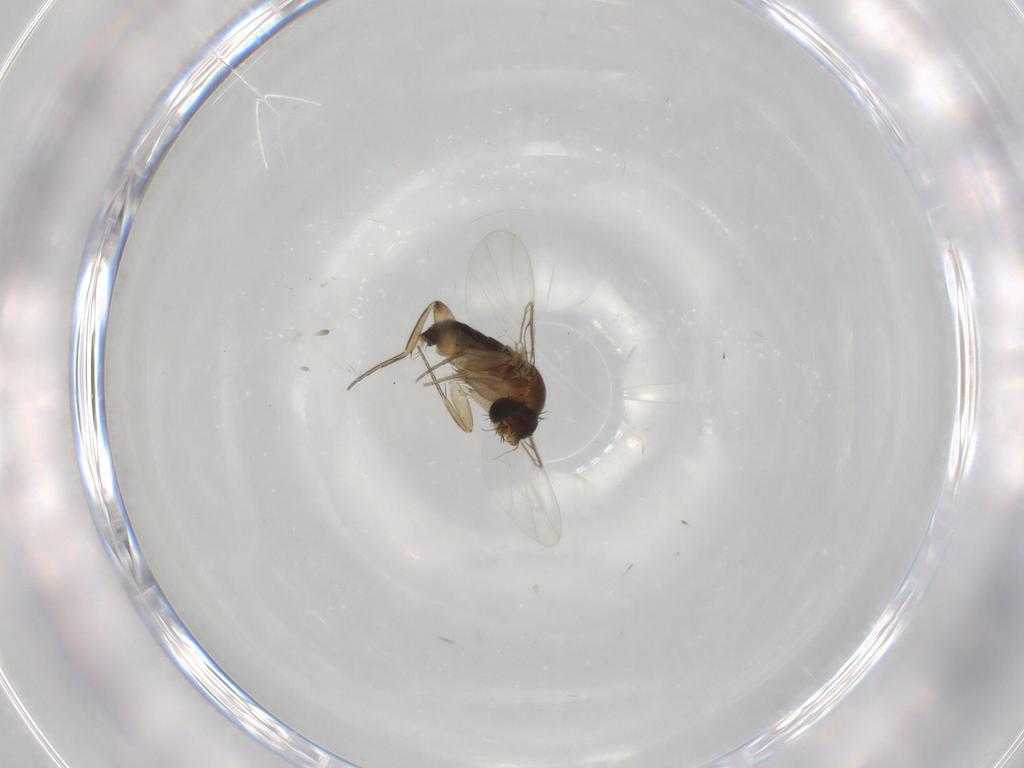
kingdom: Animalia
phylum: Arthropoda
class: Insecta
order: Diptera
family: Phoridae
